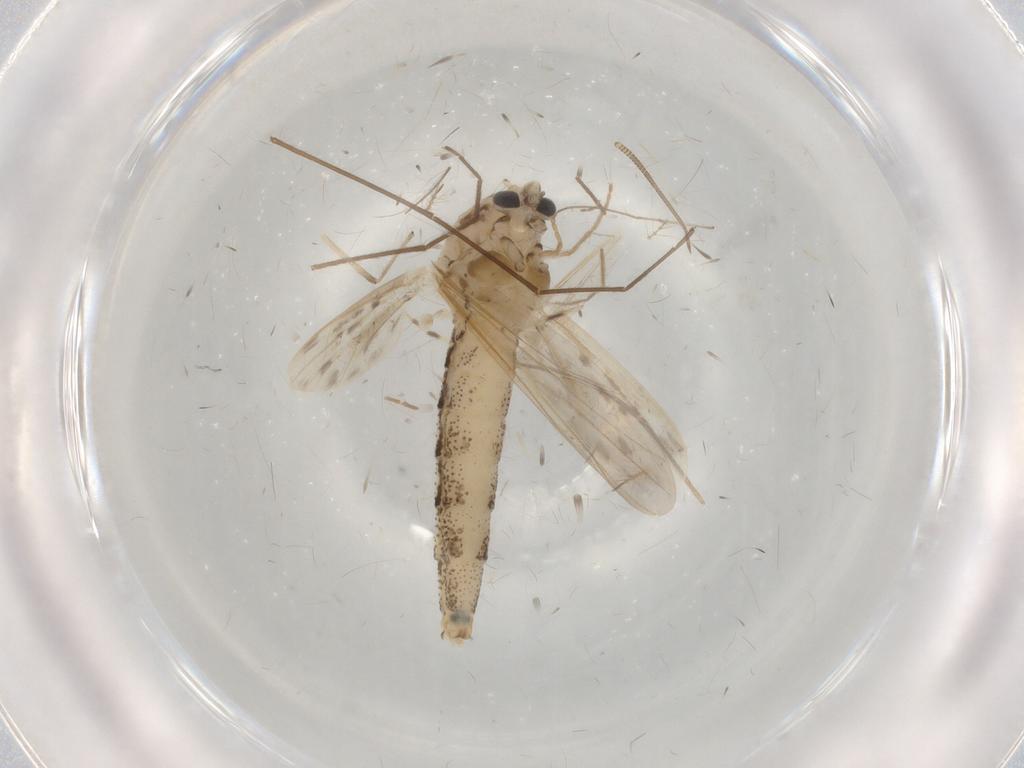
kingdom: Animalia
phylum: Arthropoda
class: Insecta
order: Diptera
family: Chaoboridae
